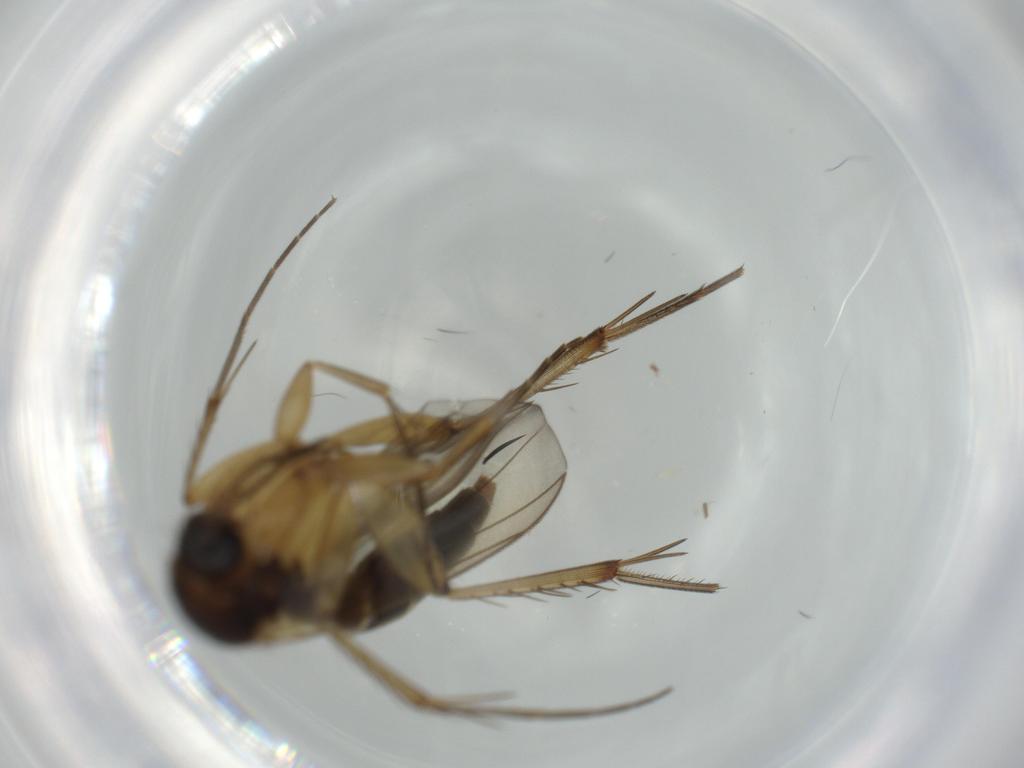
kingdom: Animalia
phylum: Arthropoda
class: Insecta
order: Diptera
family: Mycetophilidae
